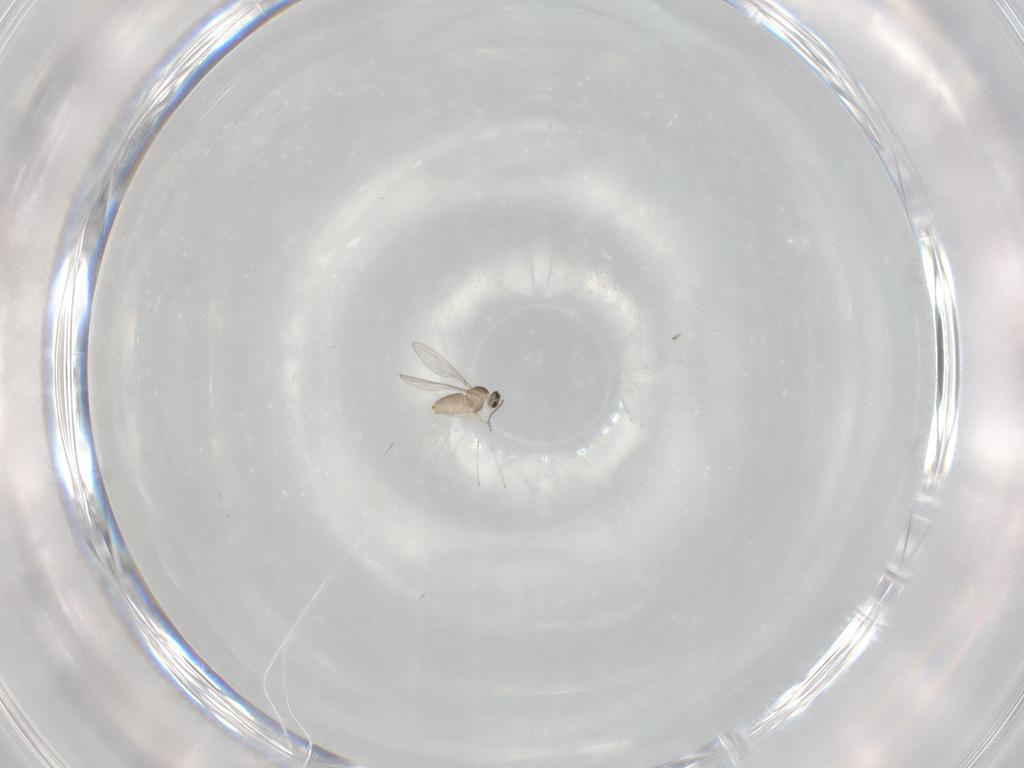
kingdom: Animalia
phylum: Arthropoda
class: Insecta
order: Diptera
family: Cecidomyiidae
